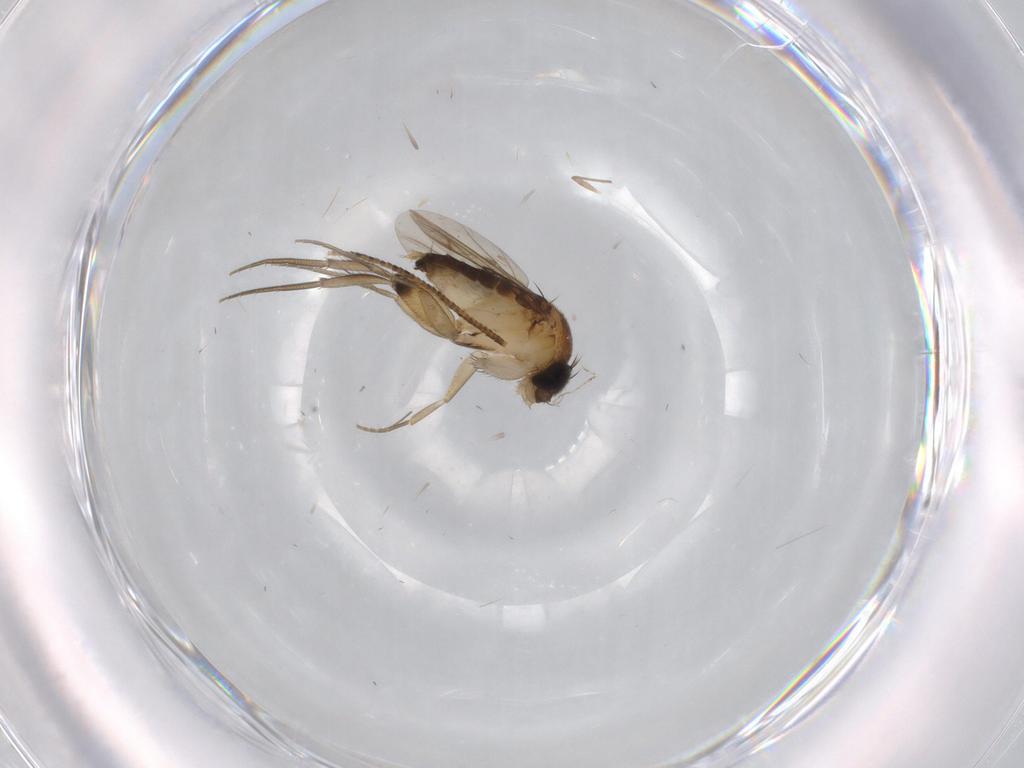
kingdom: Animalia
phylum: Arthropoda
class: Insecta
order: Diptera
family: Phoridae
